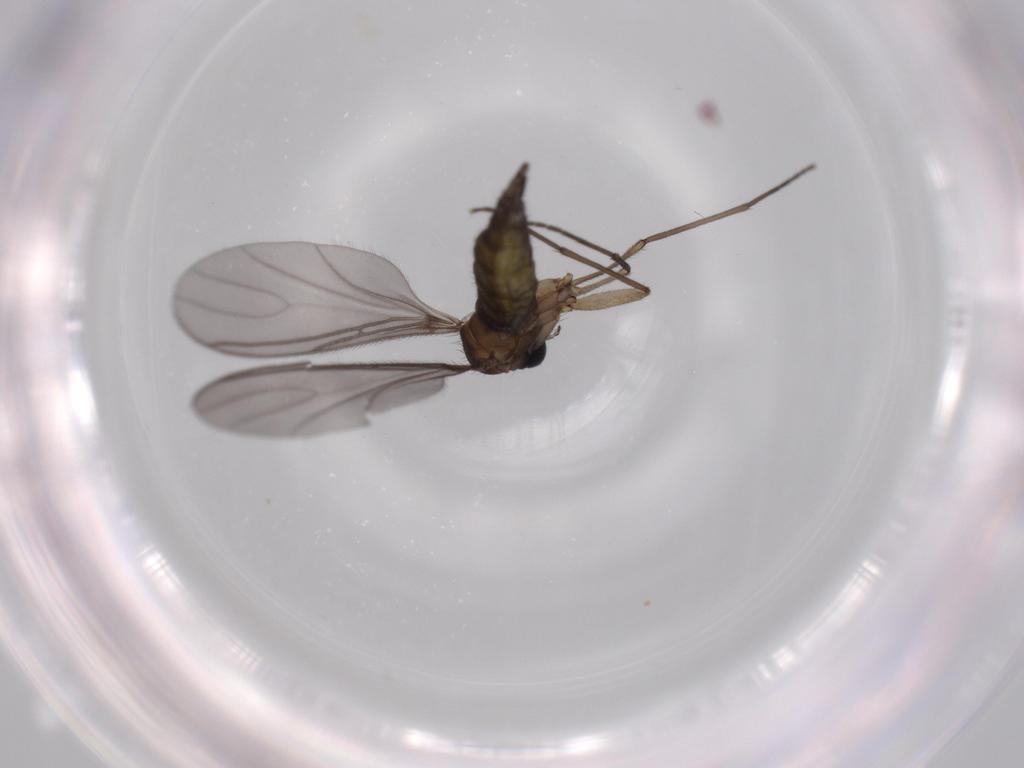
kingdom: Animalia
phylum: Arthropoda
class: Insecta
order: Diptera
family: Sciaridae
